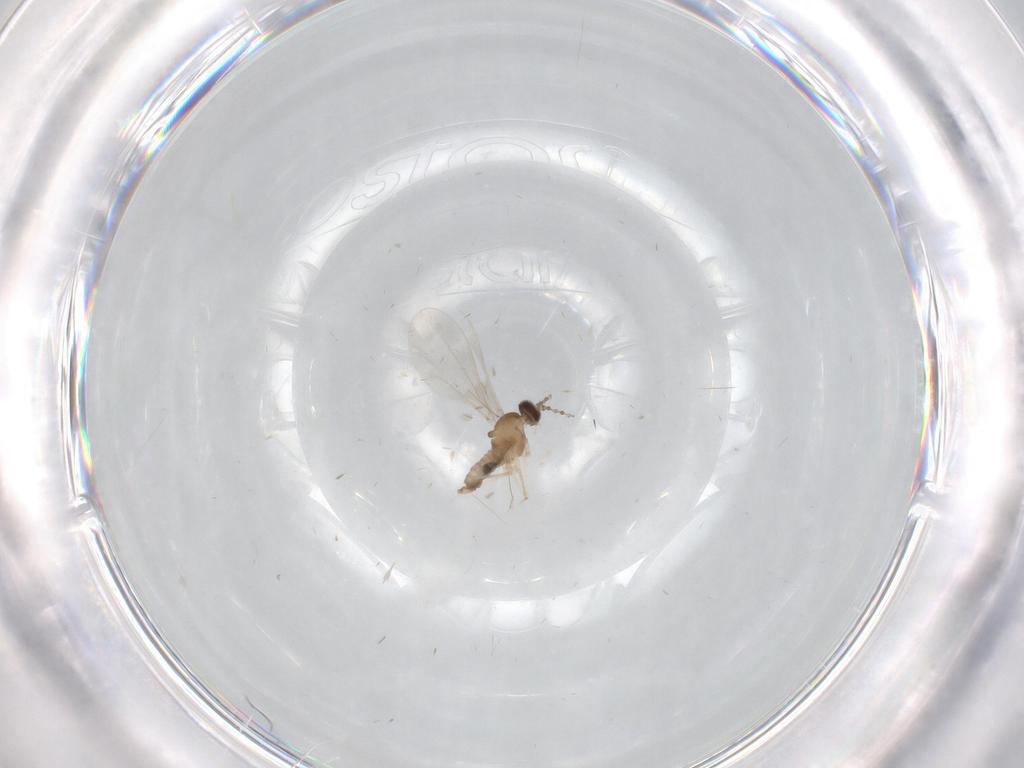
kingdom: Animalia
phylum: Arthropoda
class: Insecta
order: Diptera
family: Cecidomyiidae
